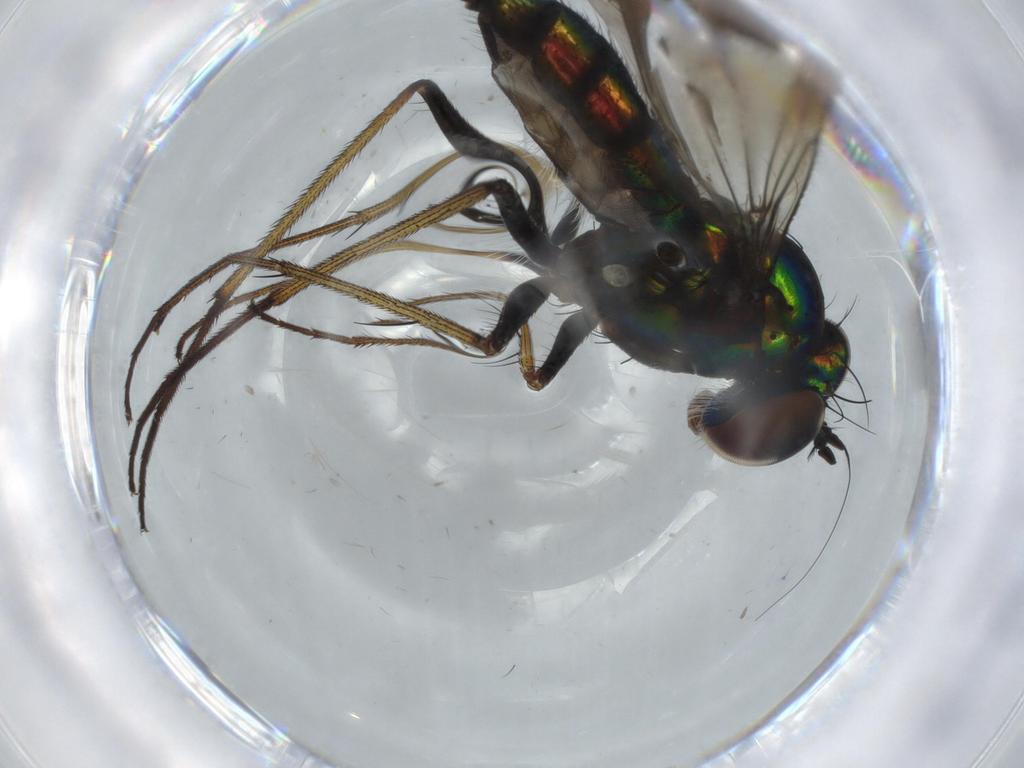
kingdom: Animalia
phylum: Arthropoda
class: Insecta
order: Diptera
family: Dolichopodidae
